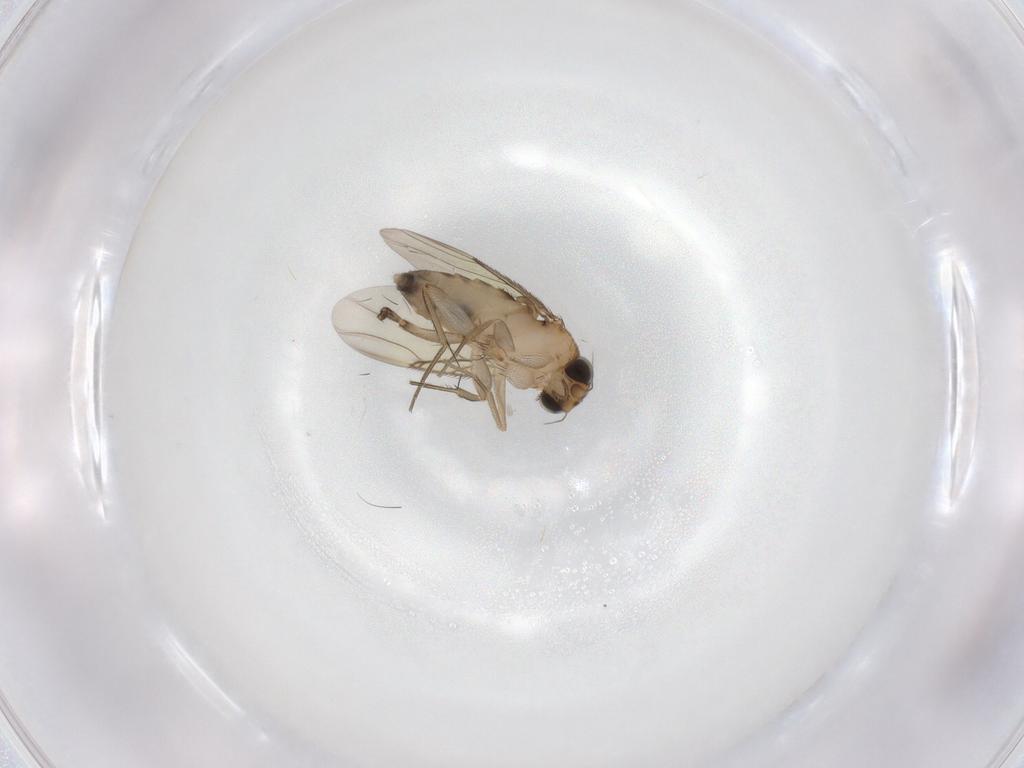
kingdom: Animalia
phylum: Arthropoda
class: Insecta
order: Diptera
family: Phoridae
